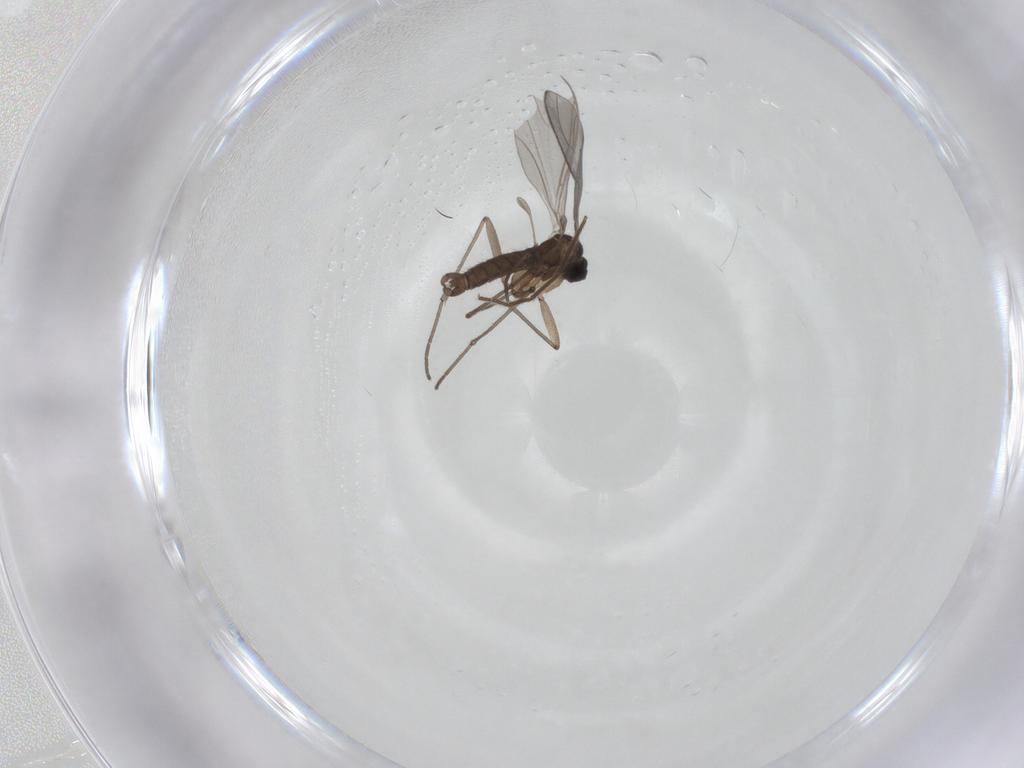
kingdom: Animalia
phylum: Arthropoda
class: Insecta
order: Diptera
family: Chironomidae
